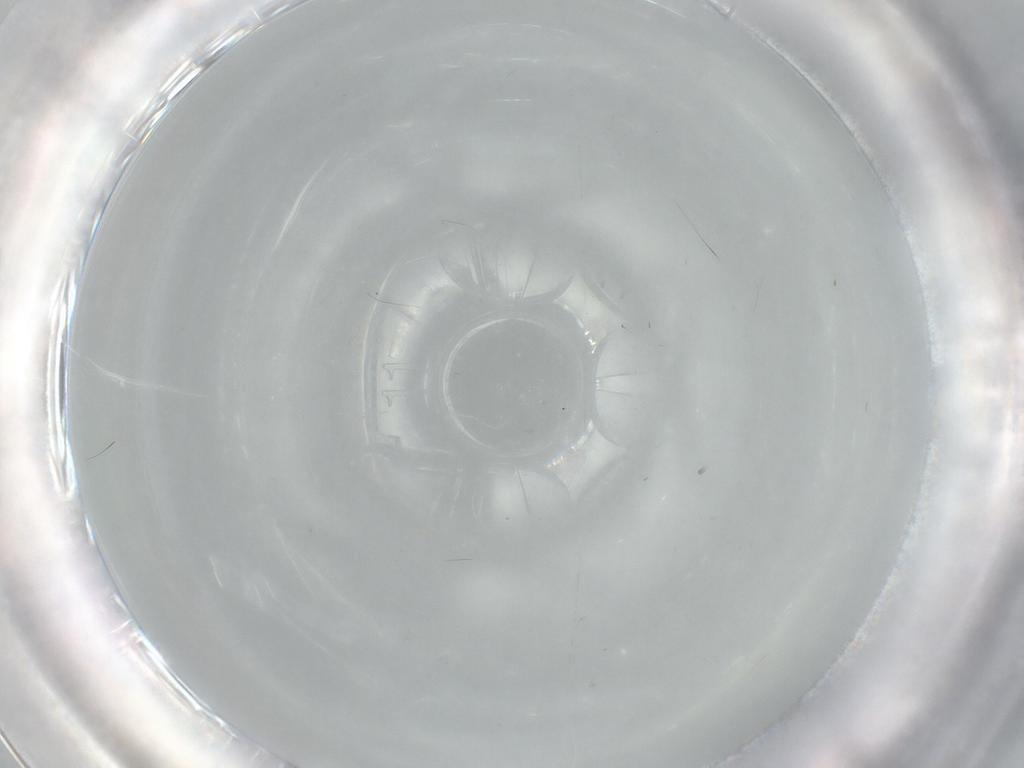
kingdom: Animalia
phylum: Arthropoda
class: Insecta
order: Diptera
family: Cecidomyiidae
